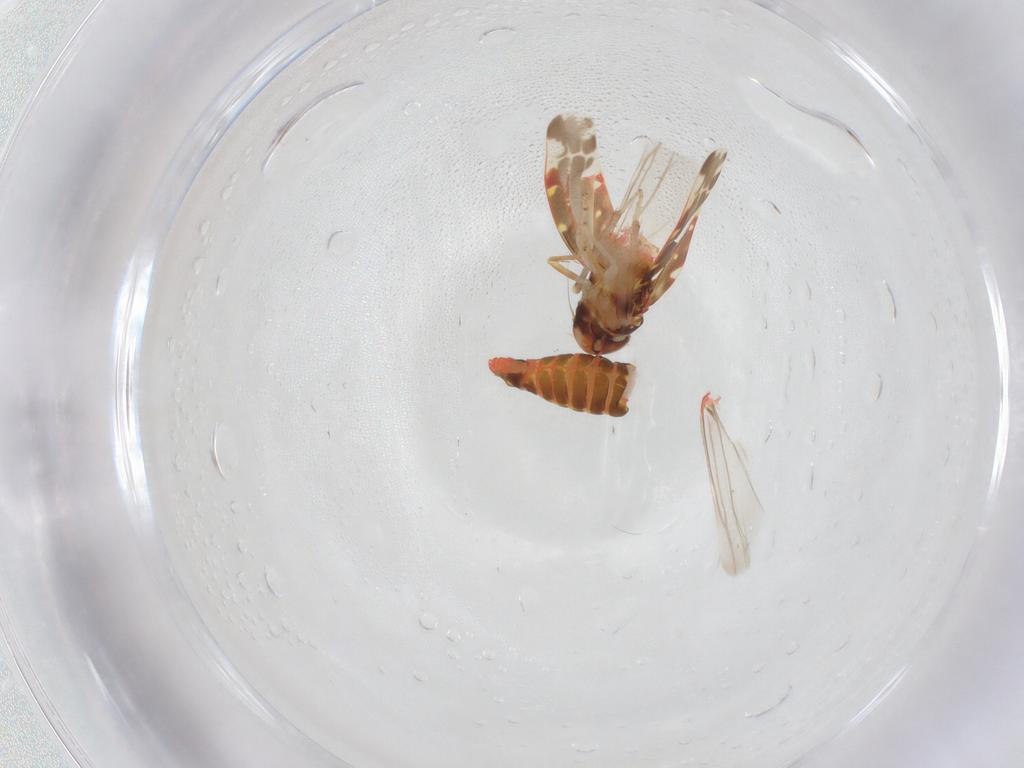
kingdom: Animalia
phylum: Arthropoda
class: Insecta
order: Hemiptera
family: Cicadellidae
